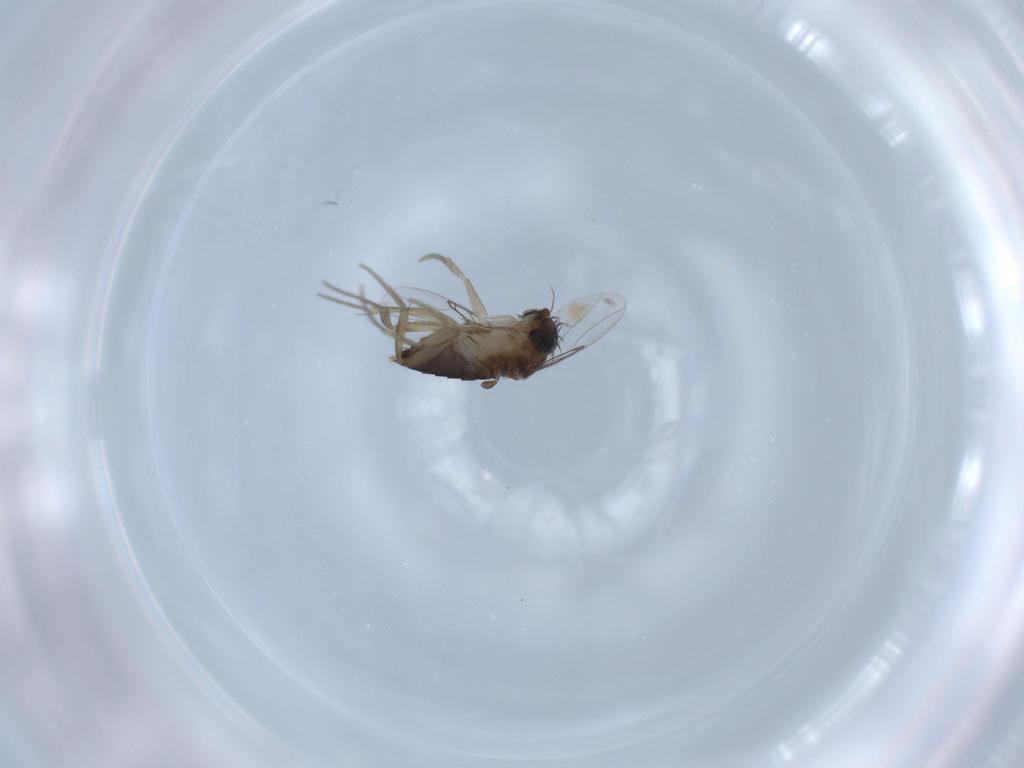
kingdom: Animalia
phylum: Arthropoda
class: Insecta
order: Diptera
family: Phoridae
